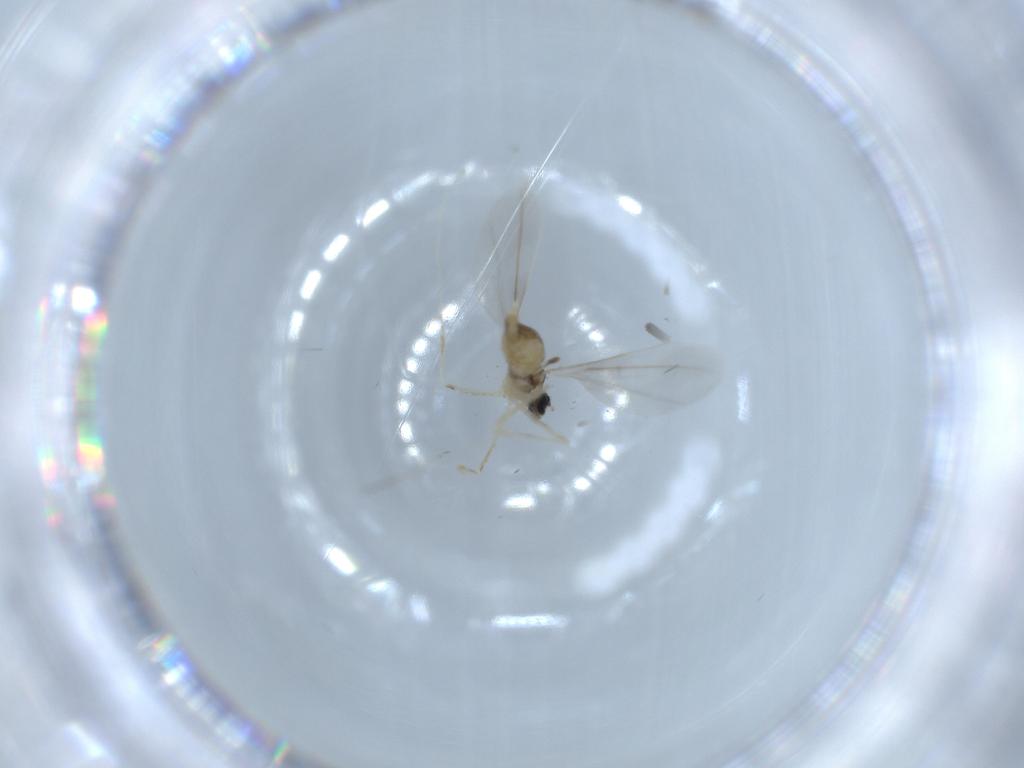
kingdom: Animalia
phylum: Arthropoda
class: Insecta
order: Diptera
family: Cecidomyiidae
